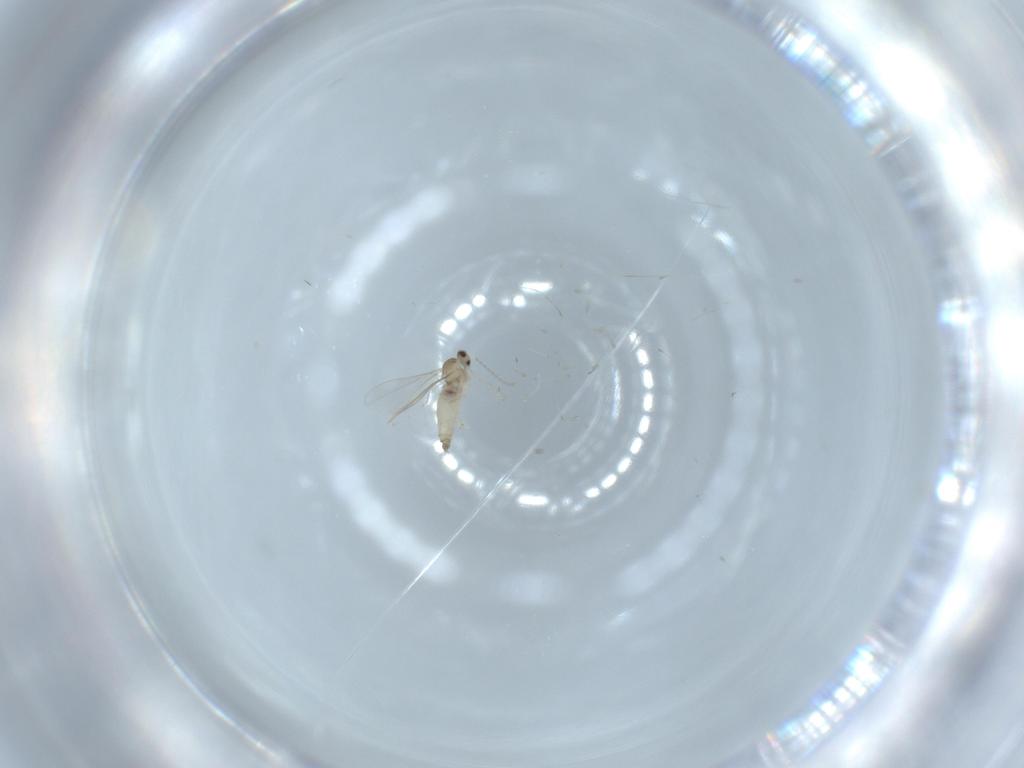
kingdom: Animalia
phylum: Arthropoda
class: Insecta
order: Diptera
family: Cecidomyiidae
